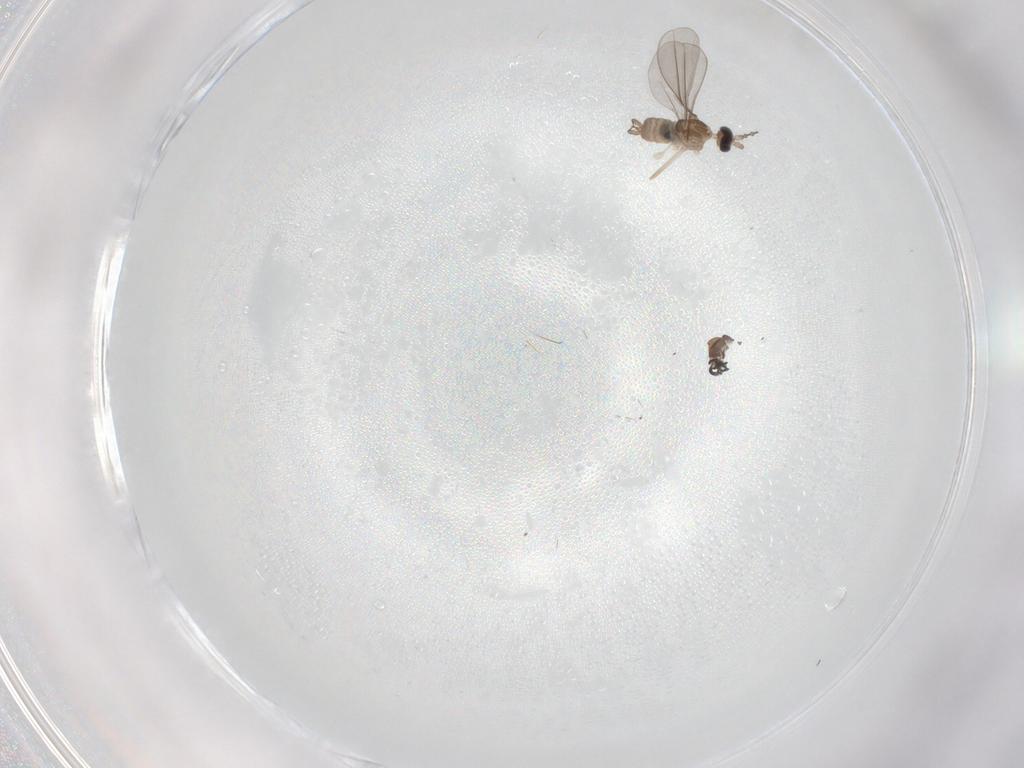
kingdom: Animalia
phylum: Arthropoda
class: Insecta
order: Diptera
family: Cecidomyiidae
